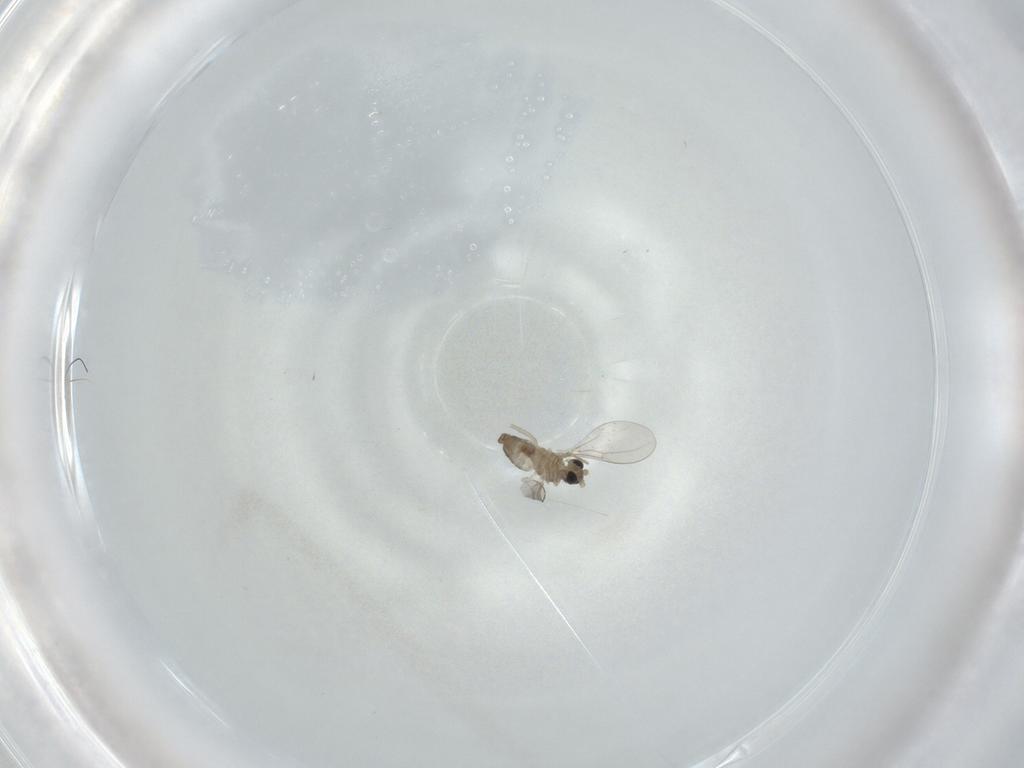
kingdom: Animalia
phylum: Arthropoda
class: Insecta
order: Diptera
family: Cecidomyiidae
